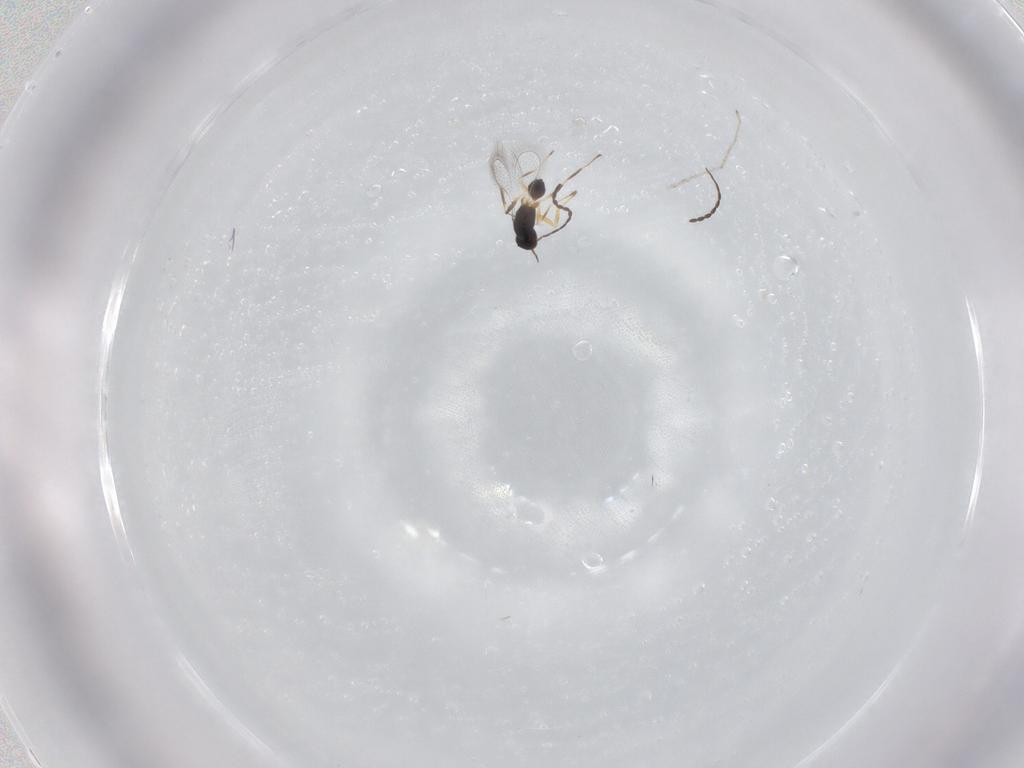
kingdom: Animalia
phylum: Arthropoda
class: Insecta
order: Hymenoptera
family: Mymaridae
